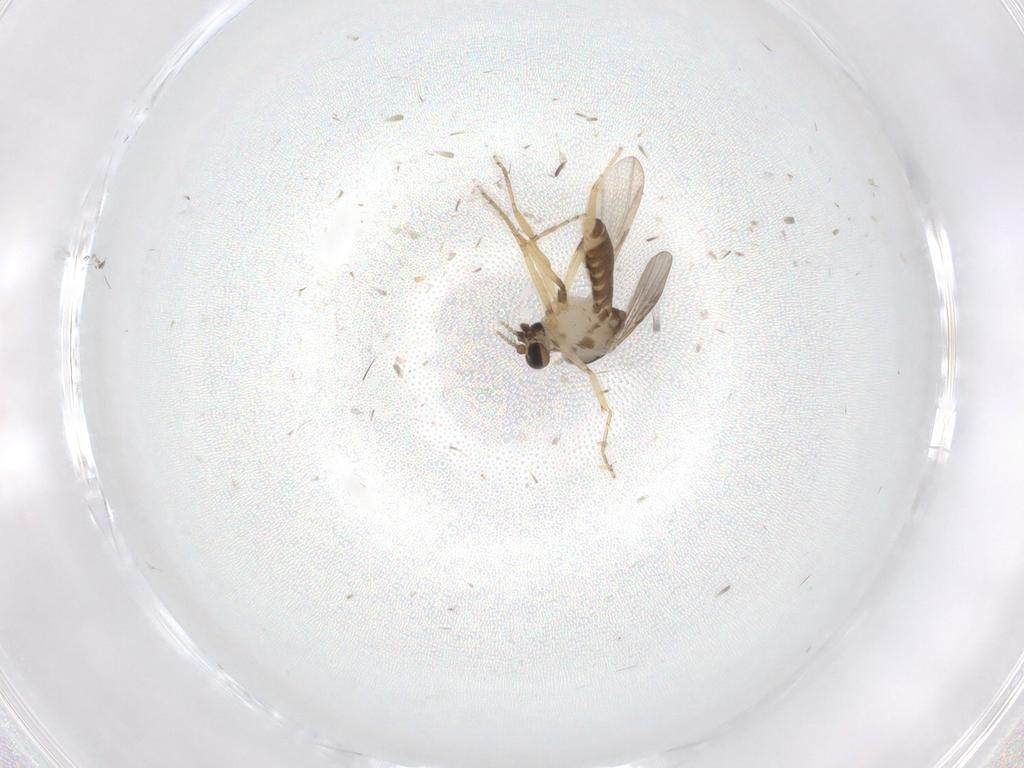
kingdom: Animalia
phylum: Arthropoda
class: Insecta
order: Diptera
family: Ceratopogonidae
